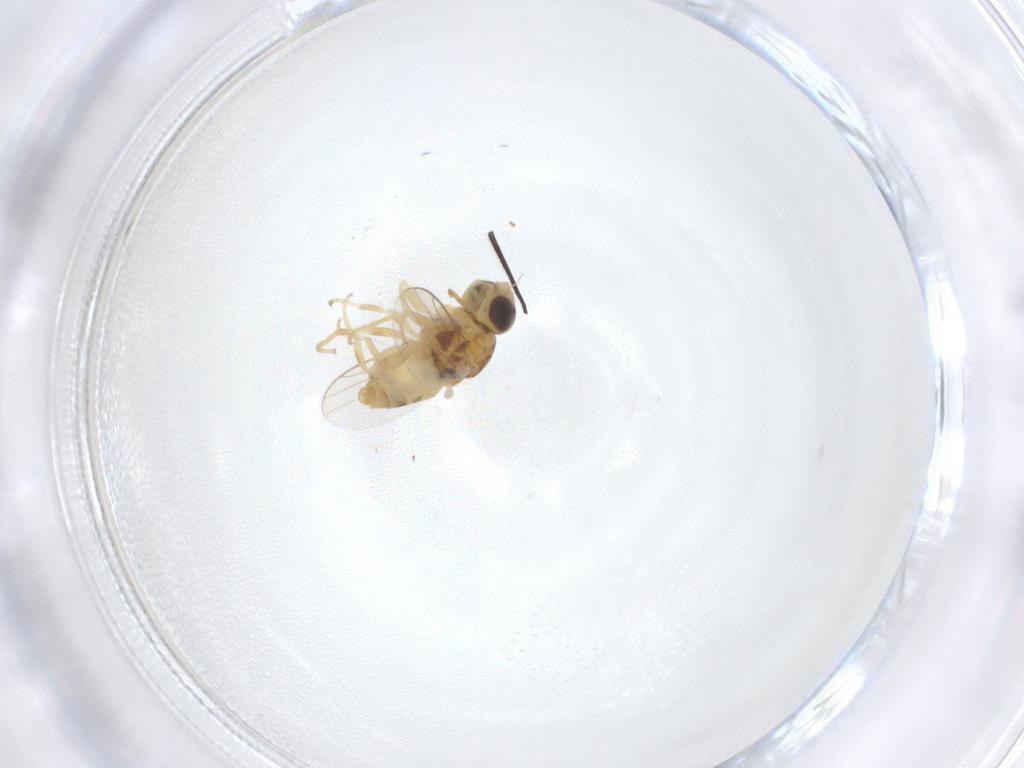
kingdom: Animalia
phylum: Arthropoda
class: Insecta
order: Diptera
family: Chloropidae
